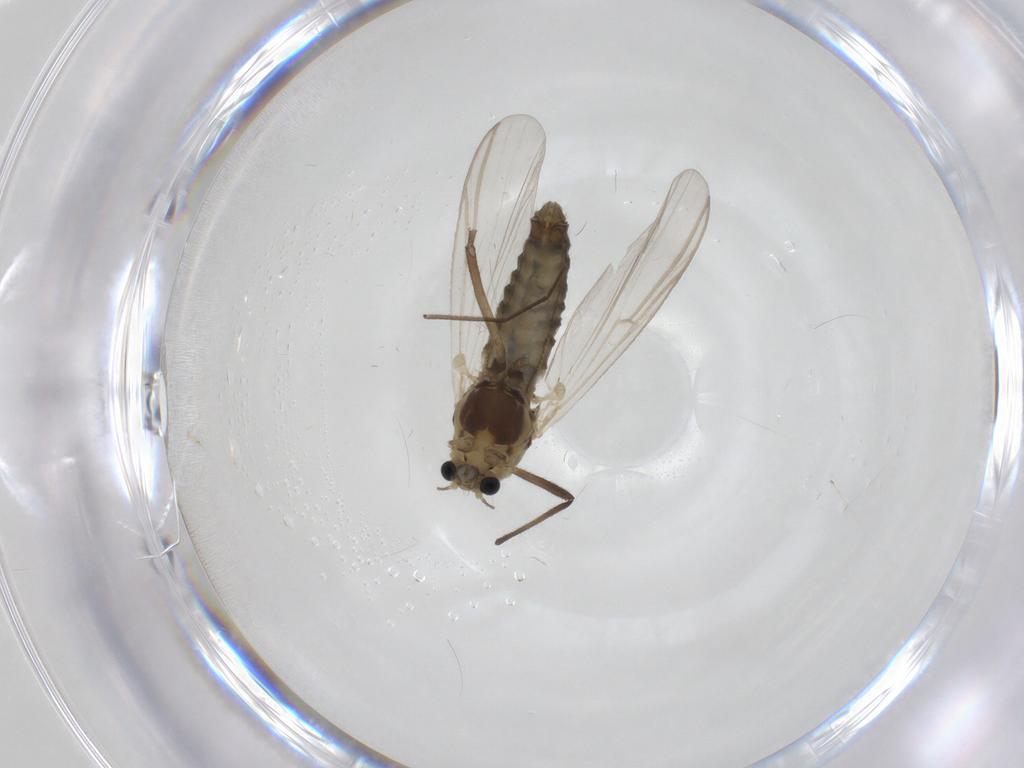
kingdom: Animalia
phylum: Arthropoda
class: Insecta
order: Diptera
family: Chironomidae
